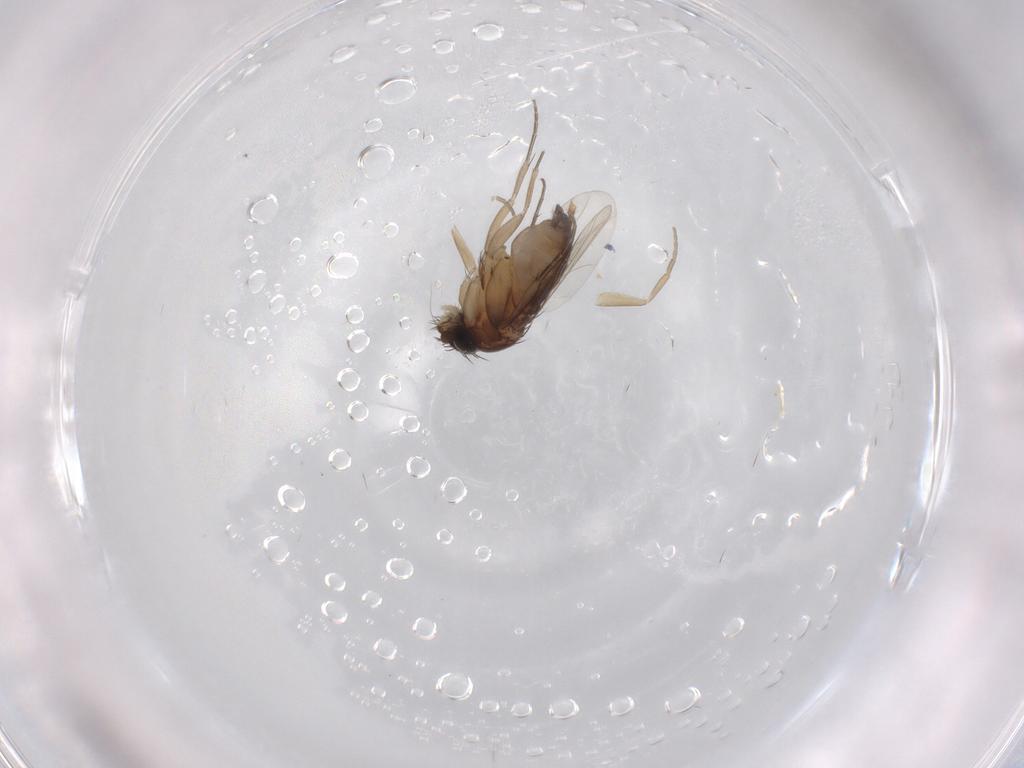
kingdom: Animalia
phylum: Arthropoda
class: Insecta
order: Diptera
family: Phoridae
